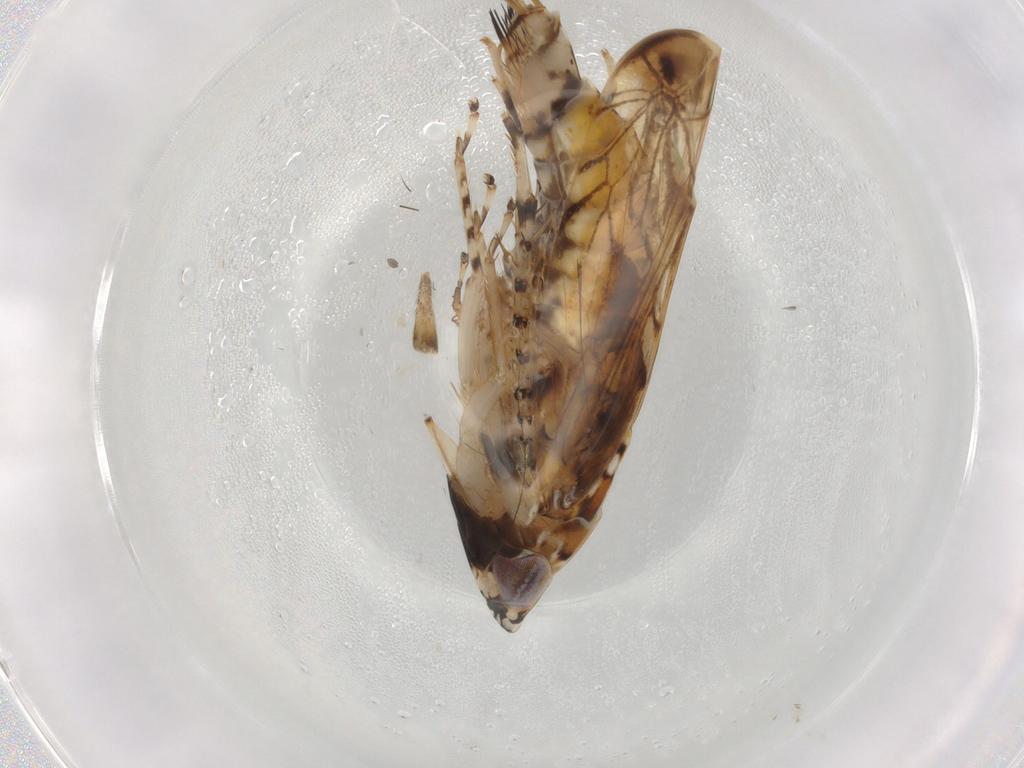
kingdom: Animalia
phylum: Arthropoda
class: Insecta
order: Hemiptera
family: Cicadellidae
